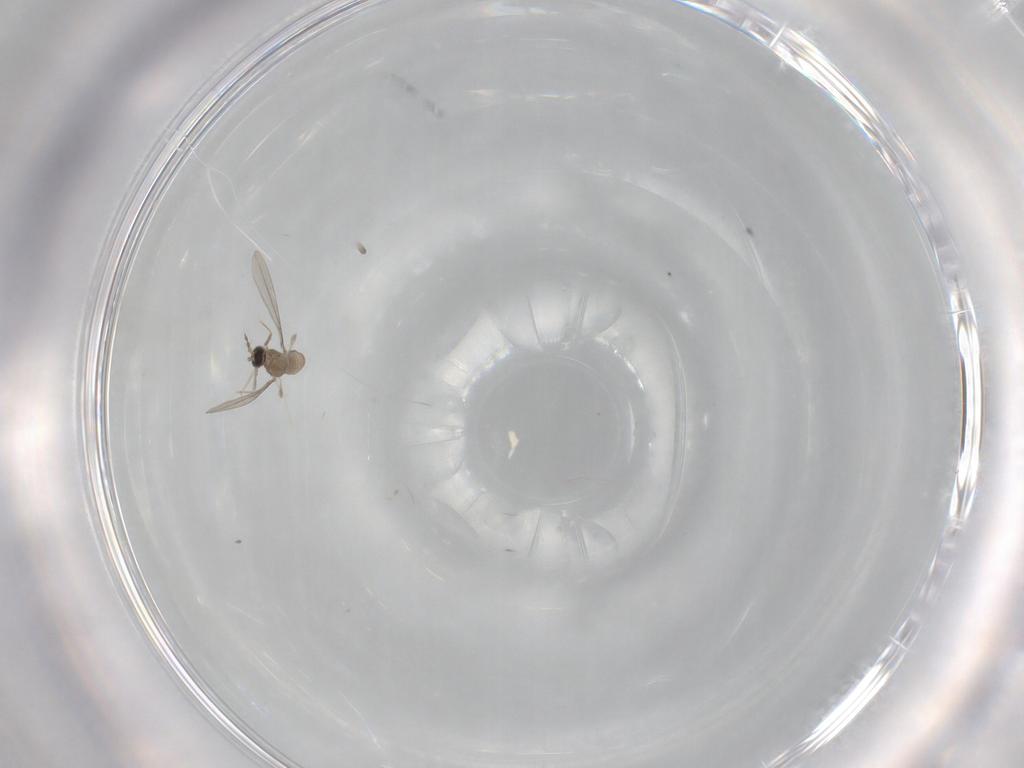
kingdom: Animalia
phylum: Arthropoda
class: Insecta
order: Diptera
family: Cecidomyiidae
